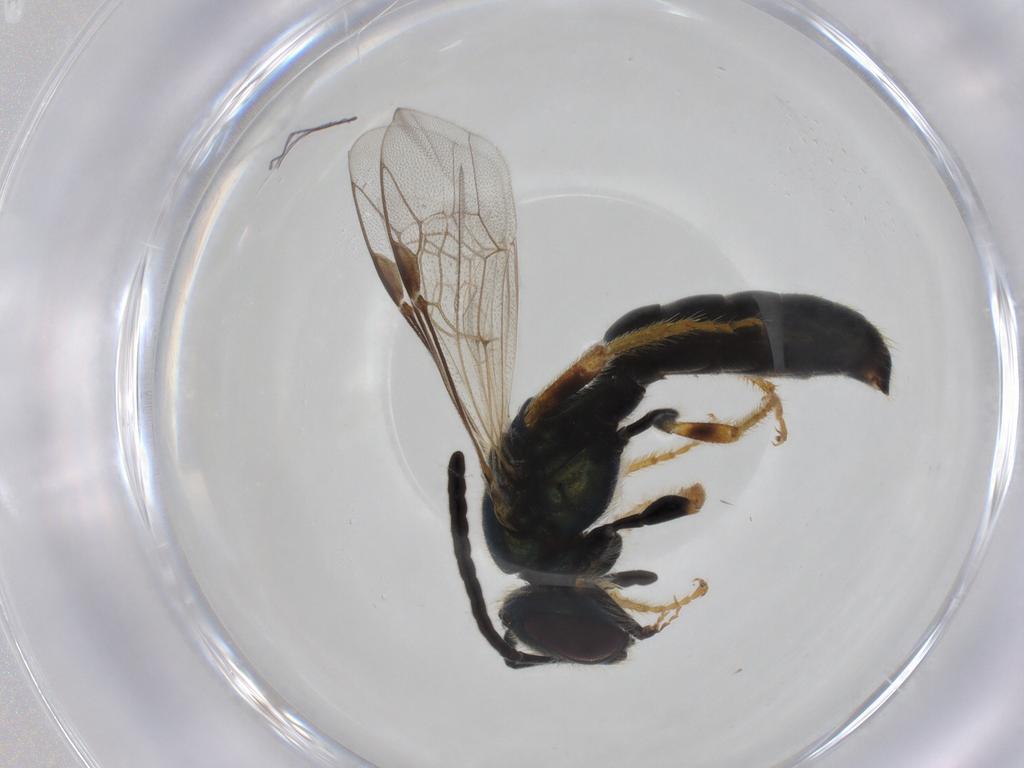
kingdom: Animalia
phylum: Arthropoda
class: Insecta
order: Hymenoptera
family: Halictidae
